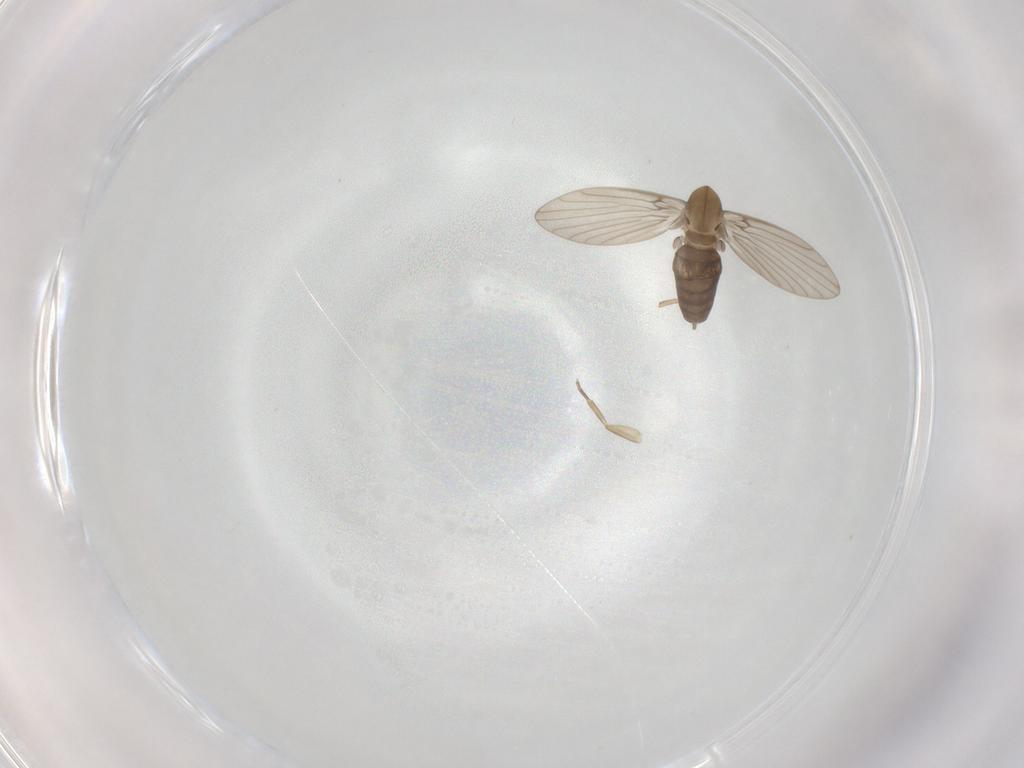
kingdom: Animalia
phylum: Arthropoda
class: Insecta
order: Diptera
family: Psychodidae
